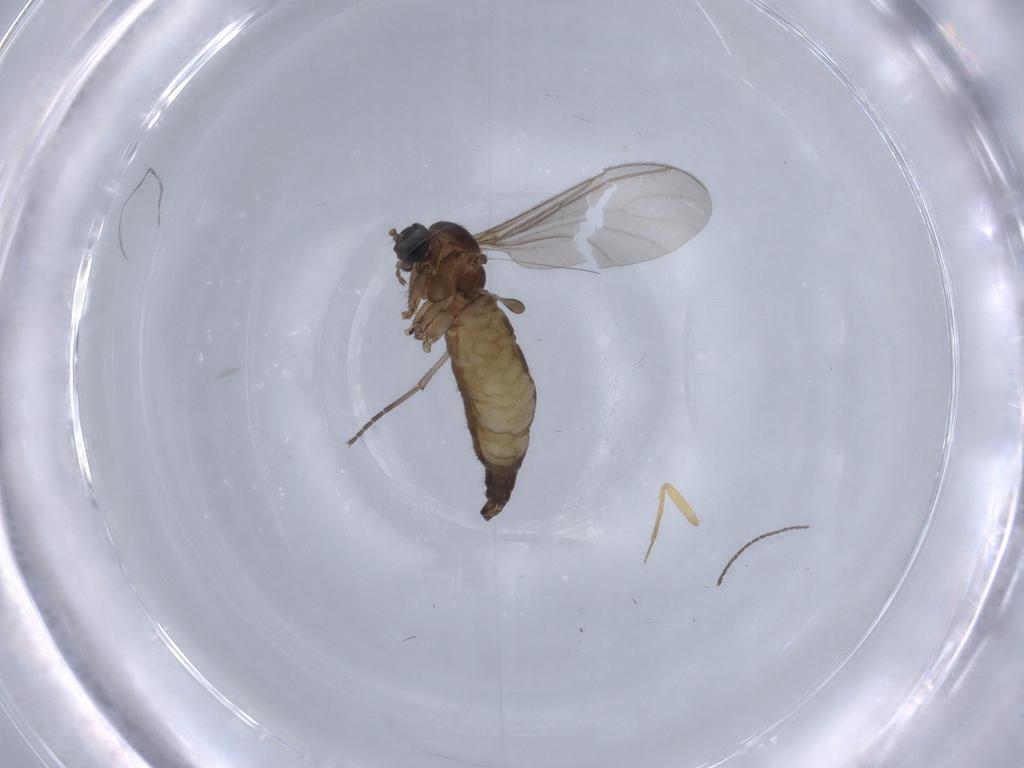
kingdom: Animalia
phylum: Arthropoda
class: Insecta
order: Diptera
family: Sciaridae
